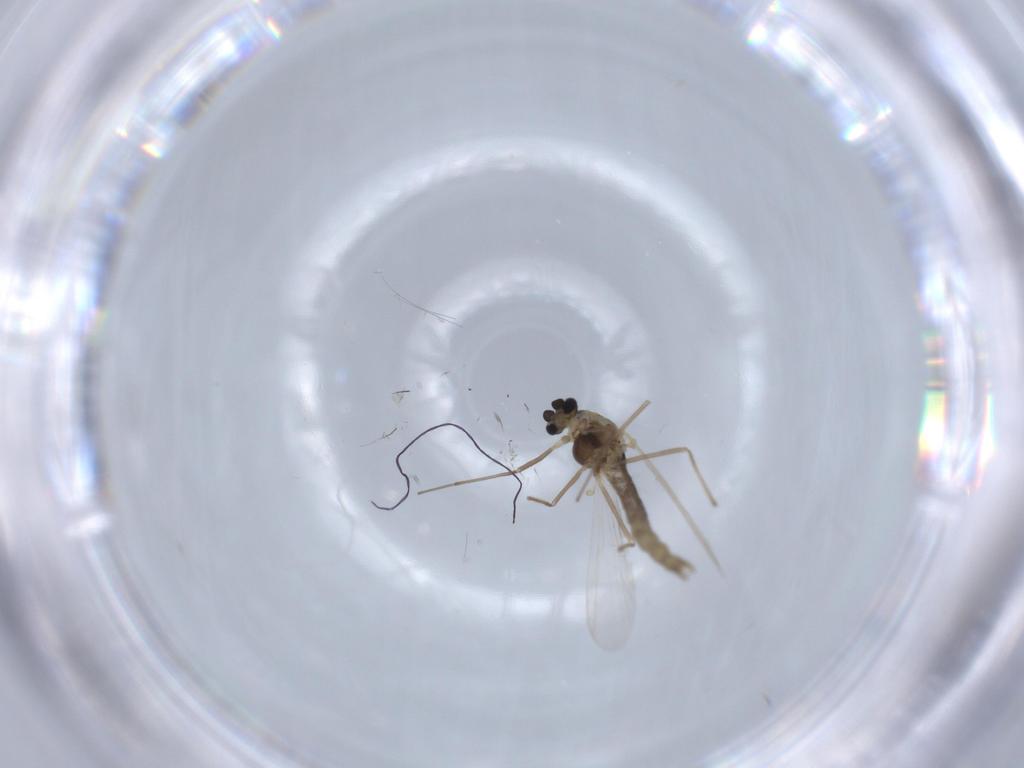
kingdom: Animalia
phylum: Arthropoda
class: Insecta
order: Diptera
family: Chironomidae
